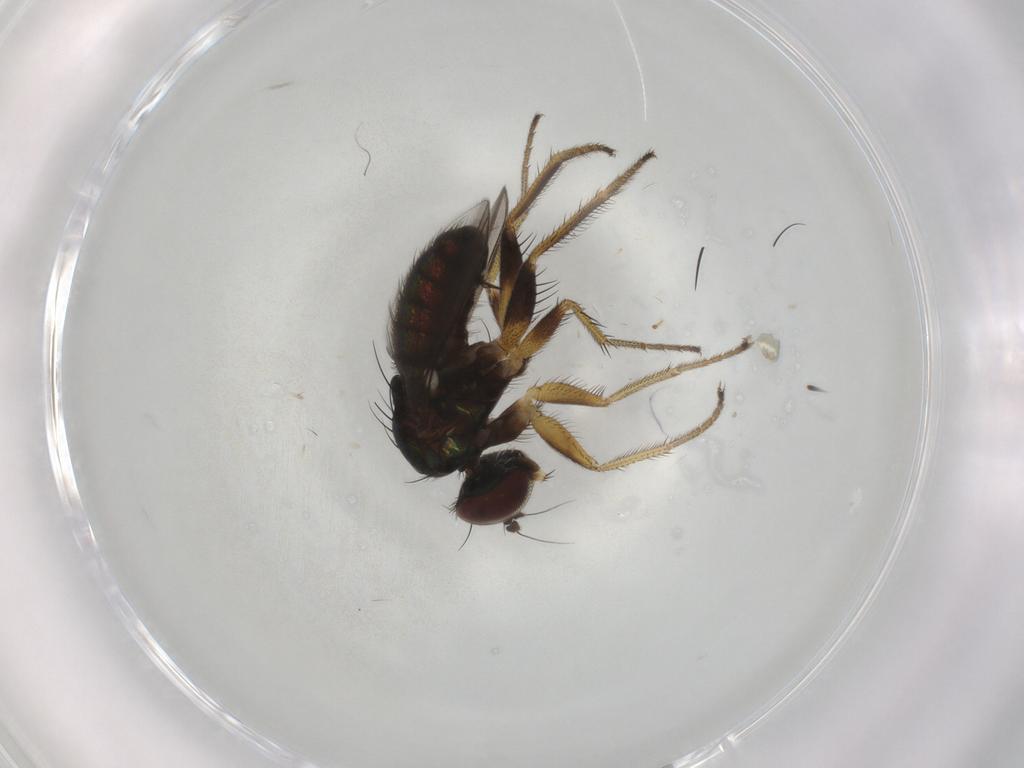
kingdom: Animalia
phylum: Arthropoda
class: Insecta
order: Diptera
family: Dolichopodidae
